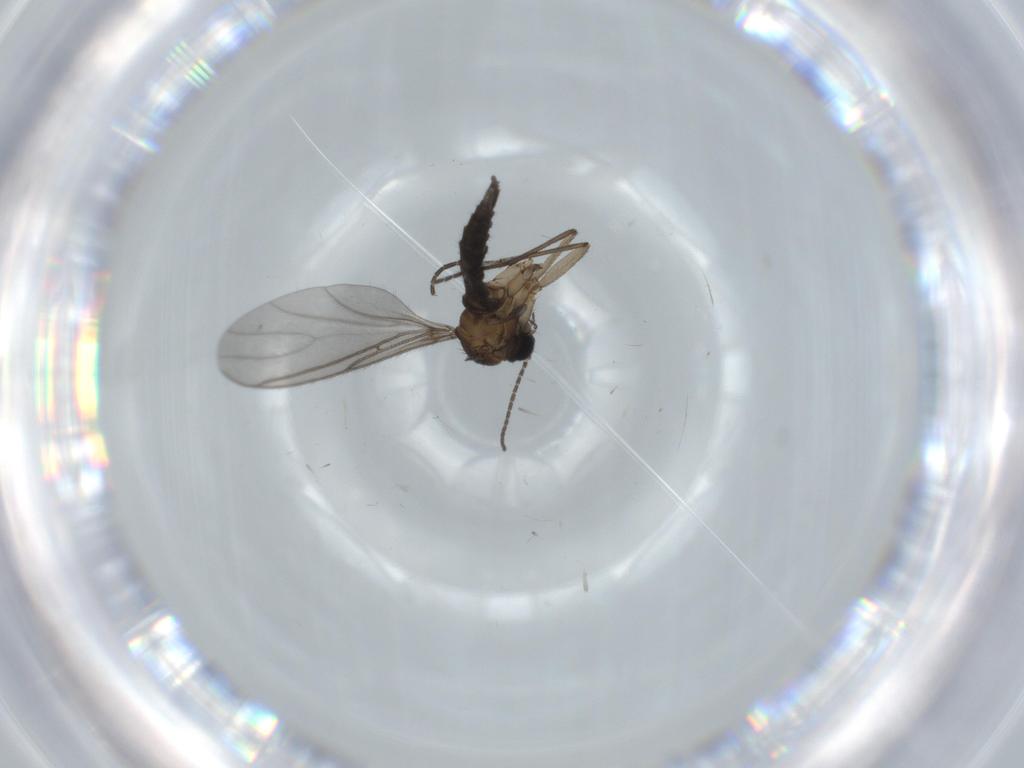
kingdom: Animalia
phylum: Arthropoda
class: Insecta
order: Diptera
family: Sciaridae
